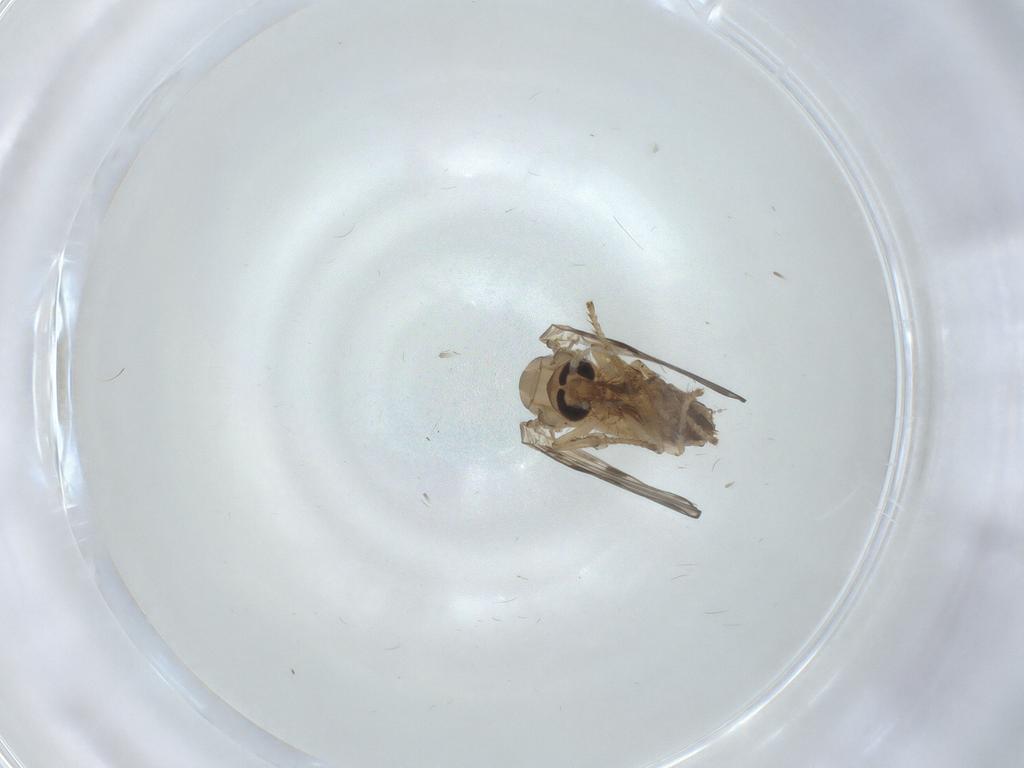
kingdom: Animalia
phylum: Arthropoda
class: Insecta
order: Diptera
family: Psychodidae
